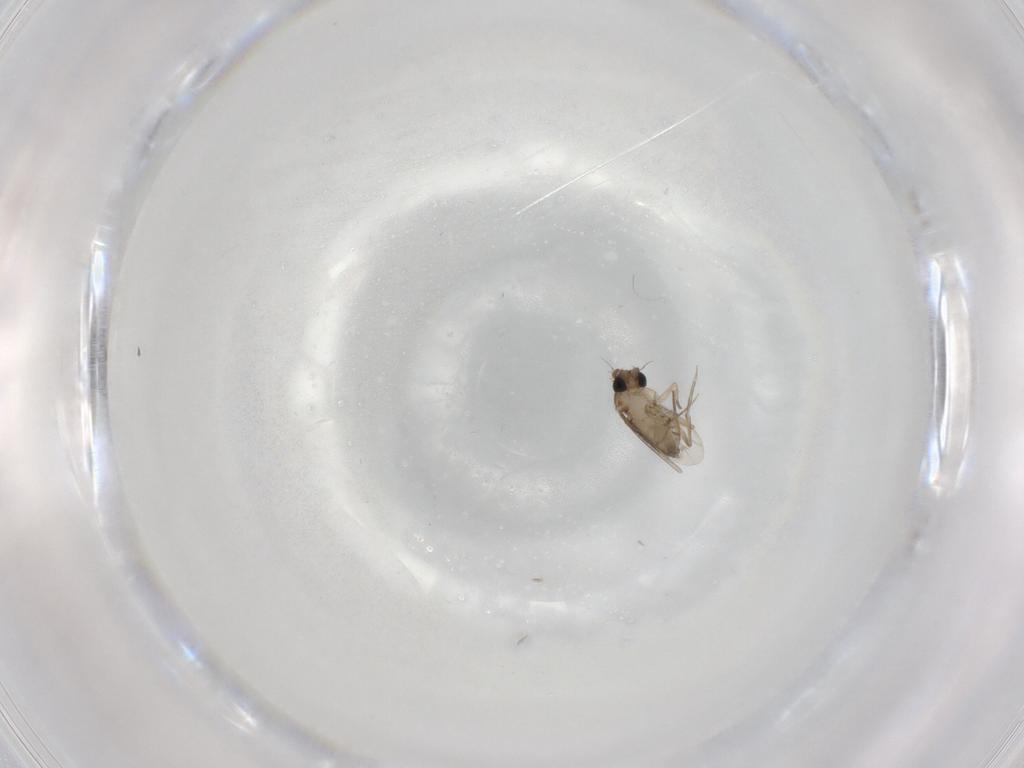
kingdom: Animalia
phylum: Arthropoda
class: Insecta
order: Diptera
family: Phoridae
